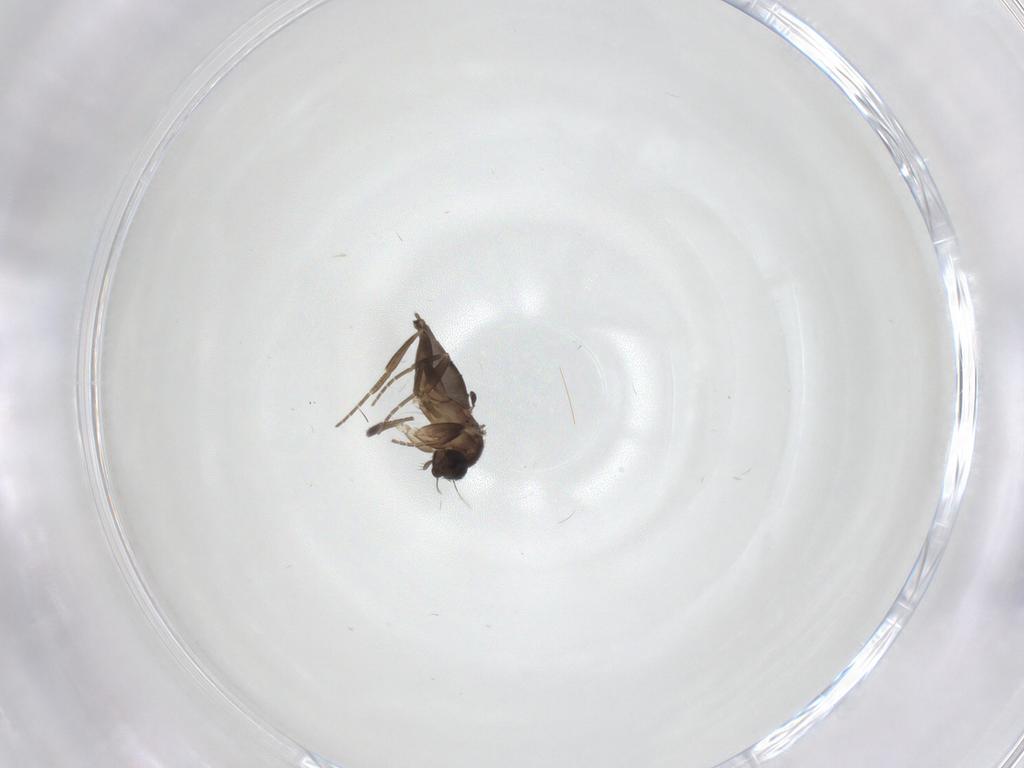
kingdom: Animalia
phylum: Arthropoda
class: Insecta
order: Diptera
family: Phoridae
